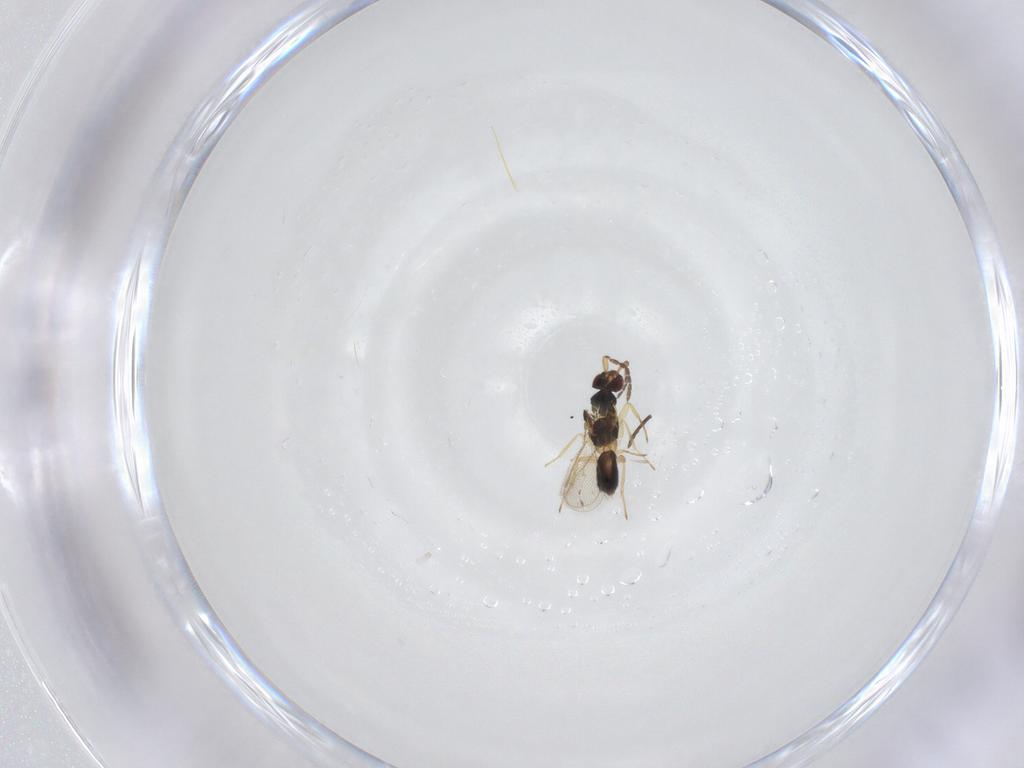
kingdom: Animalia
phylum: Arthropoda
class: Insecta
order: Hymenoptera
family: Eulophidae
